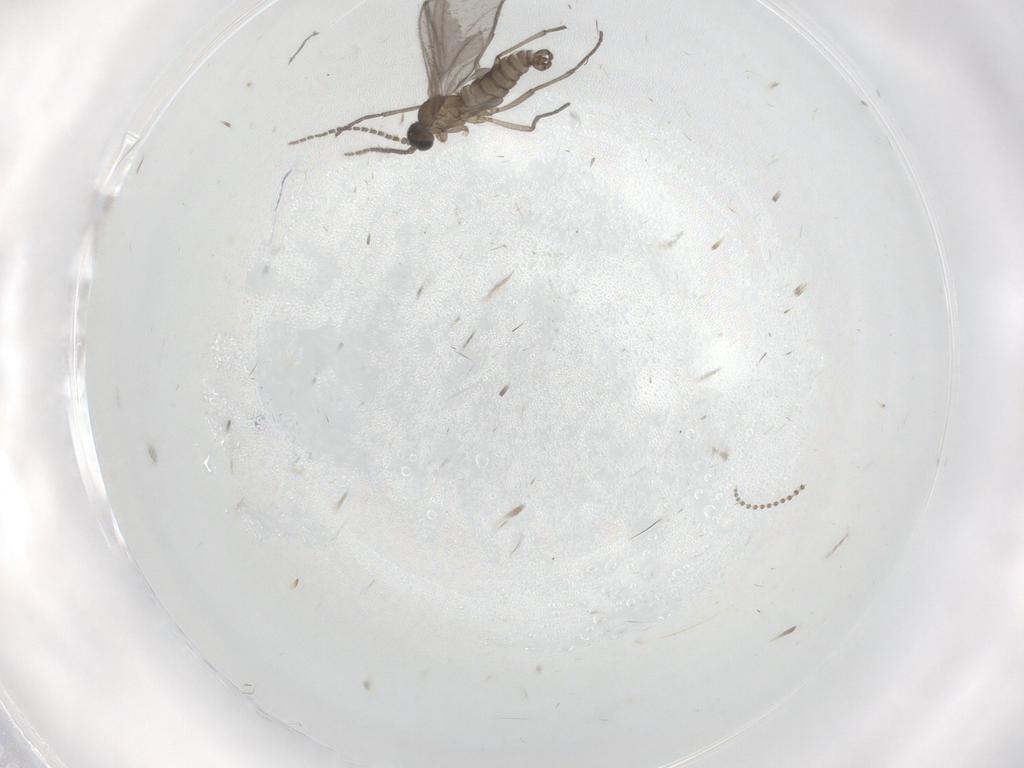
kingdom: Animalia
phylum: Arthropoda
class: Insecta
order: Diptera
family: Sciaridae
